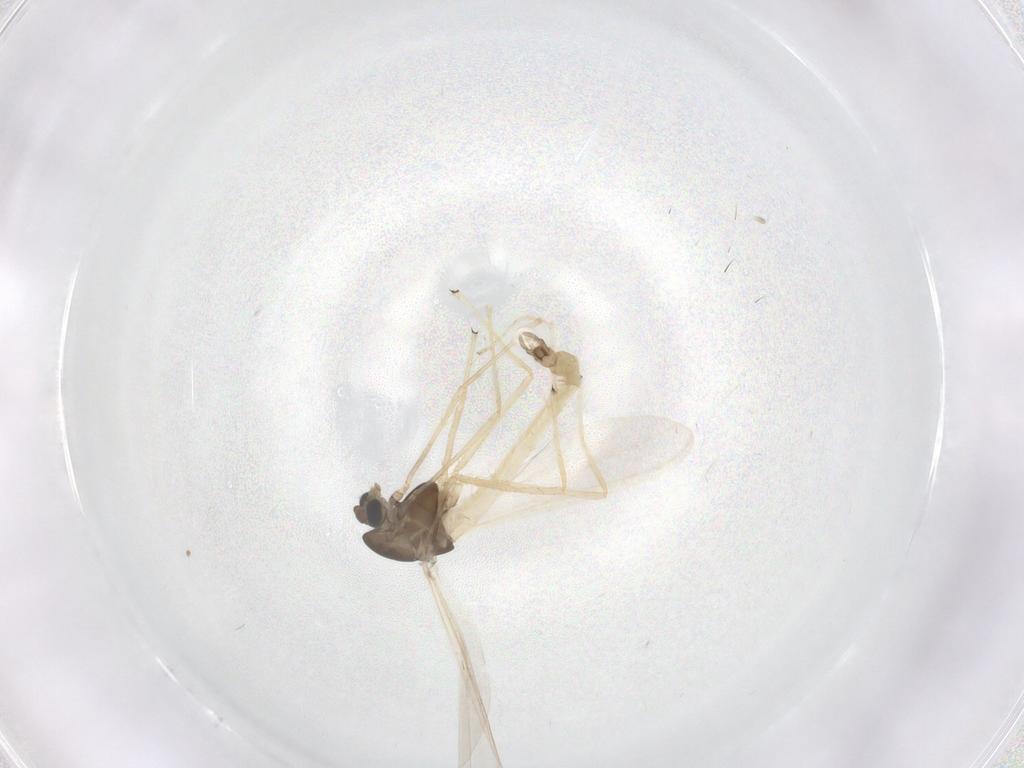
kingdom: Animalia
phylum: Arthropoda
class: Insecta
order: Diptera
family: Chironomidae
